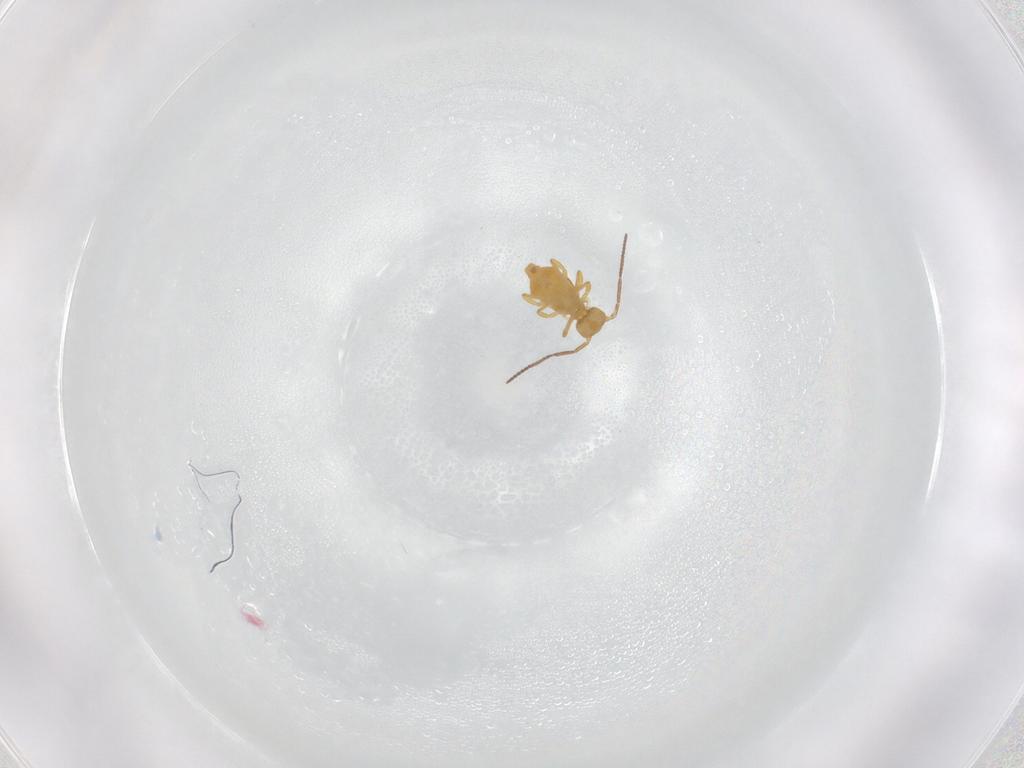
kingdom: Animalia
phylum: Arthropoda
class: Collembola
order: Symphypleona
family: Bourletiellidae
